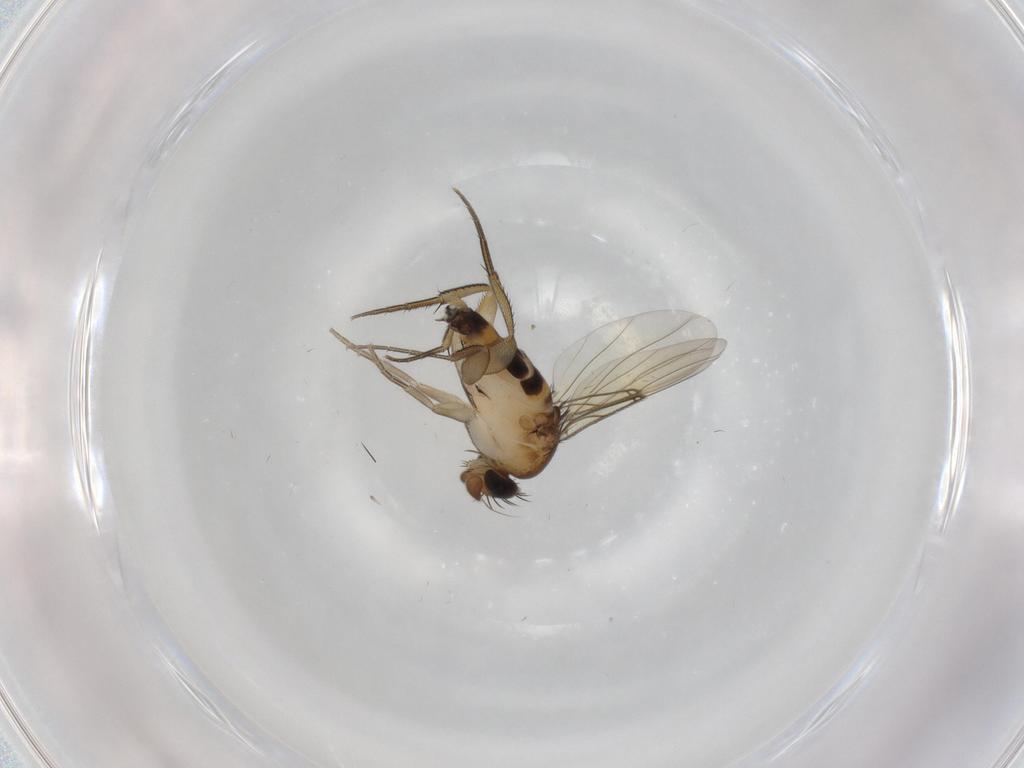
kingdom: Animalia
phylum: Arthropoda
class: Insecta
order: Diptera
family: Phoridae
